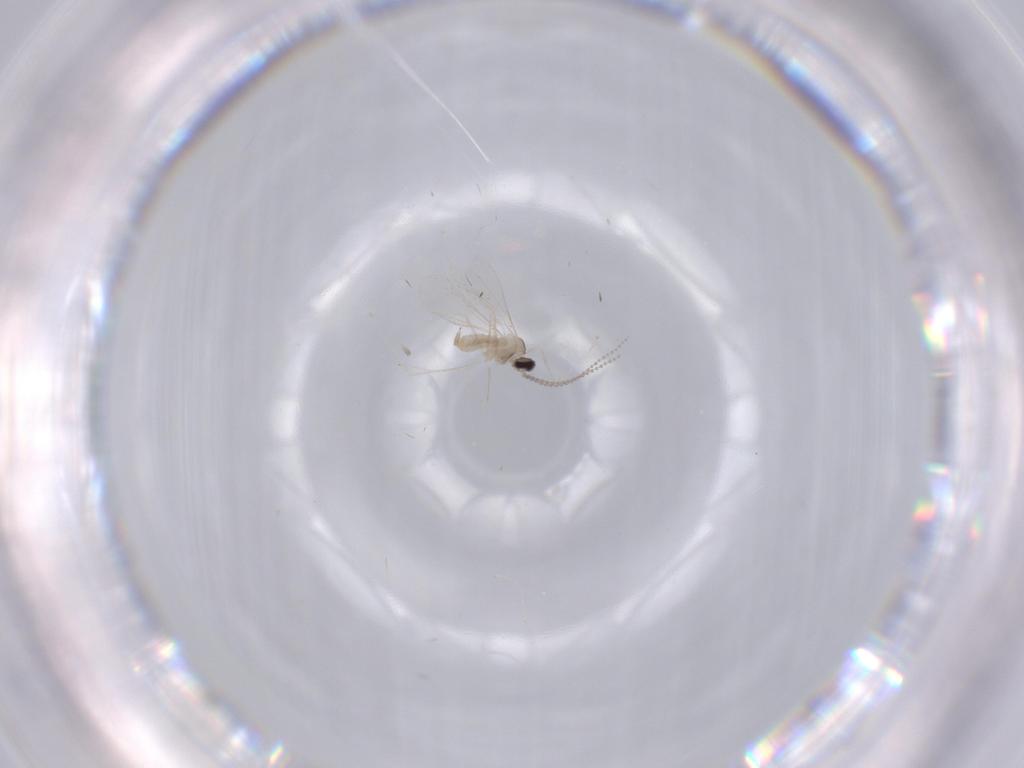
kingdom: Animalia
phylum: Arthropoda
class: Insecta
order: Diptera
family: Cecidomyiidae
